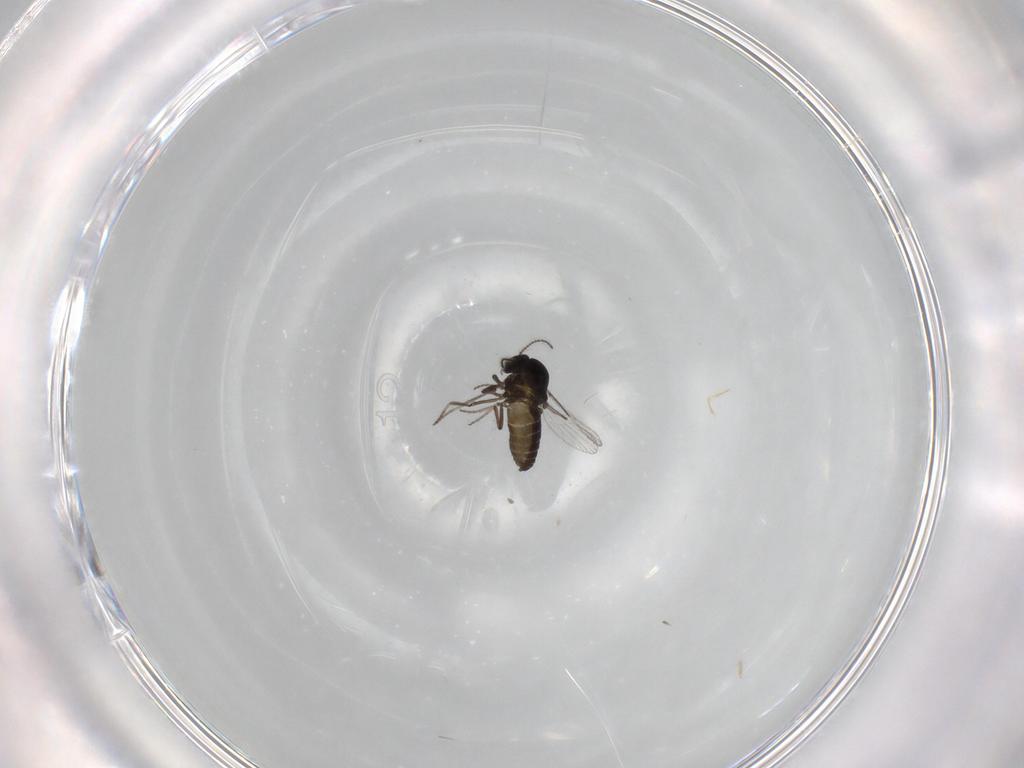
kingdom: Animalia
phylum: Arthropoda
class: Insecta
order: Diptera
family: Ceratopogonidae
